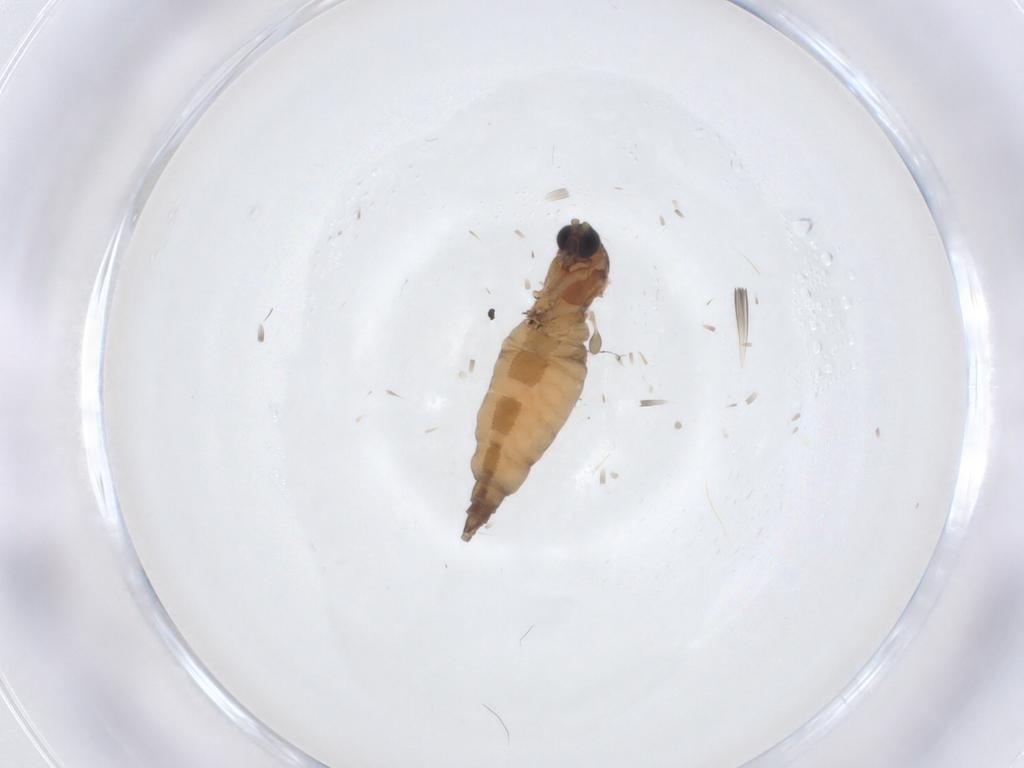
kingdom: Animalia
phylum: Arthropoda
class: Insecta
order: Diptera
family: Sciaridae
